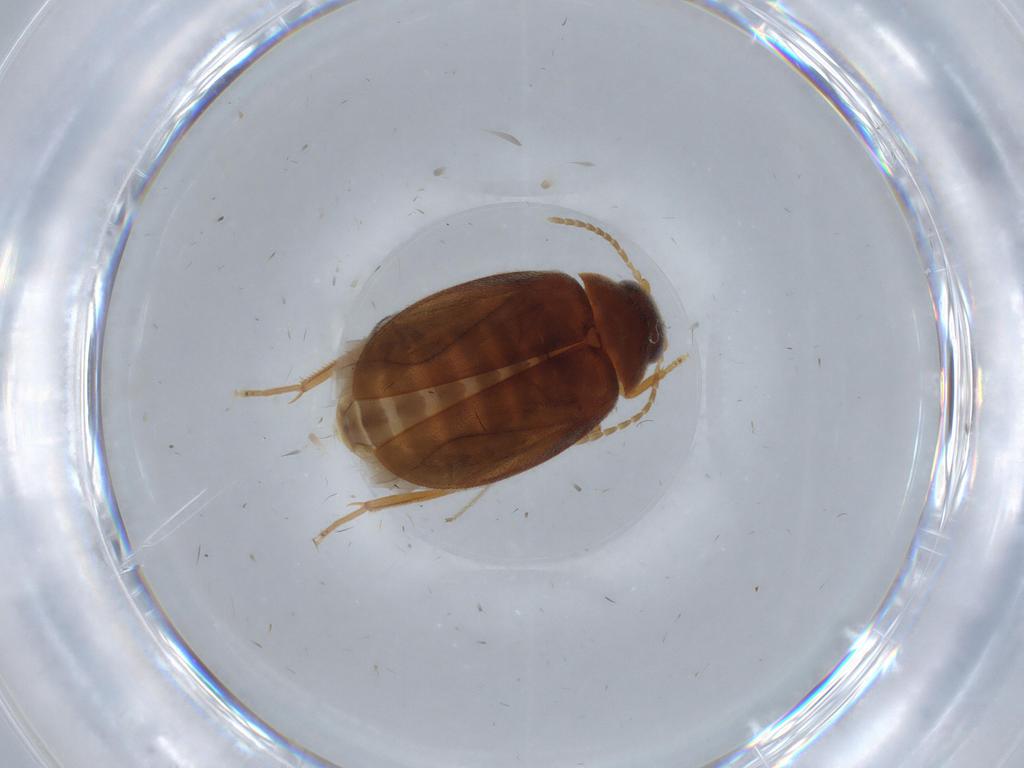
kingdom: Animalia
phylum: Arthropoda
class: Insecta
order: Coleoptera
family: Scirtidae
